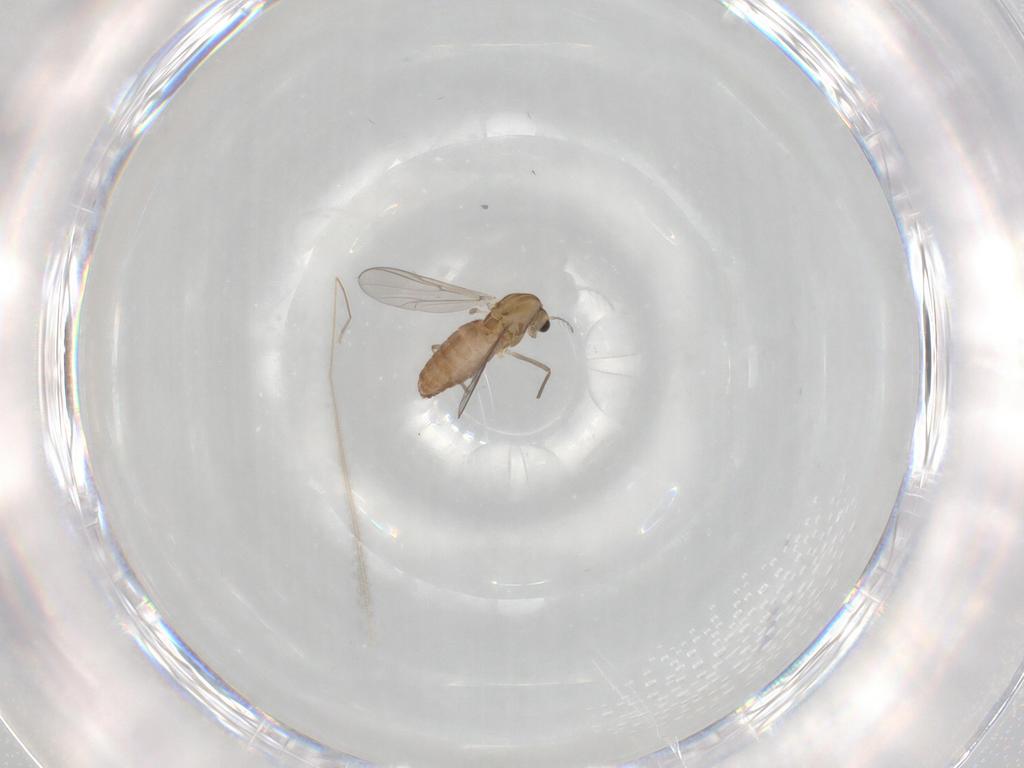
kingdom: Animalia
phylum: Arthropoda
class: Insecta
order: Diptera
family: Chironomidae
